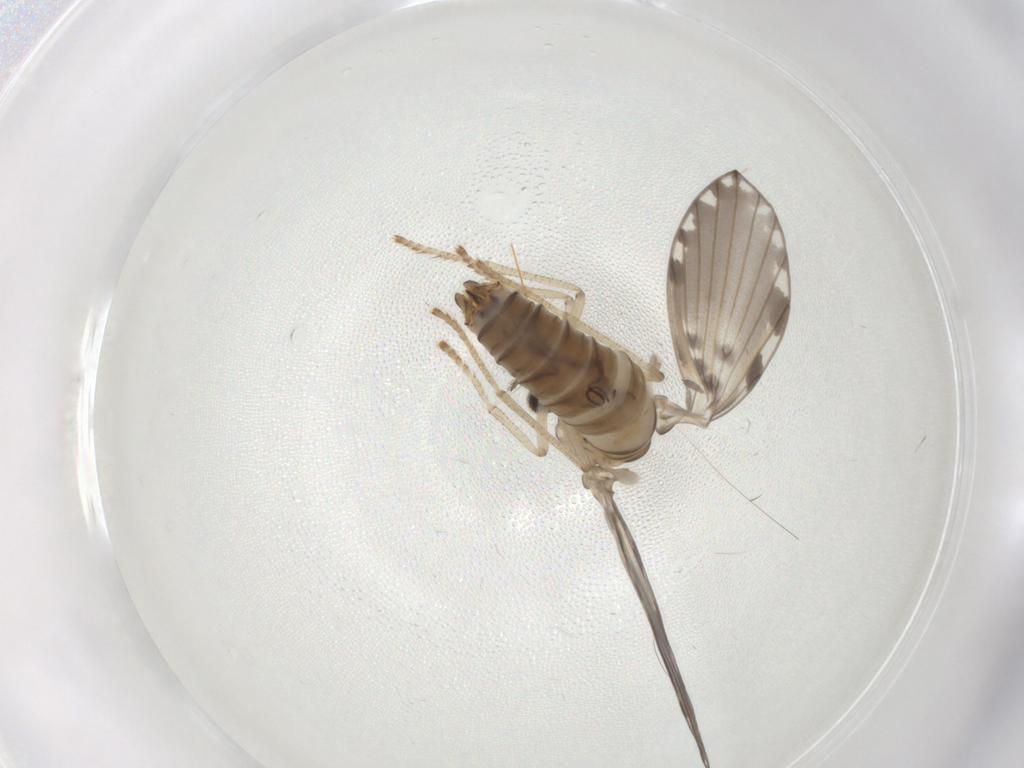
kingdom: Animalia
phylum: Arthropoda
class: Insecta
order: Diptera
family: Psychodidae
